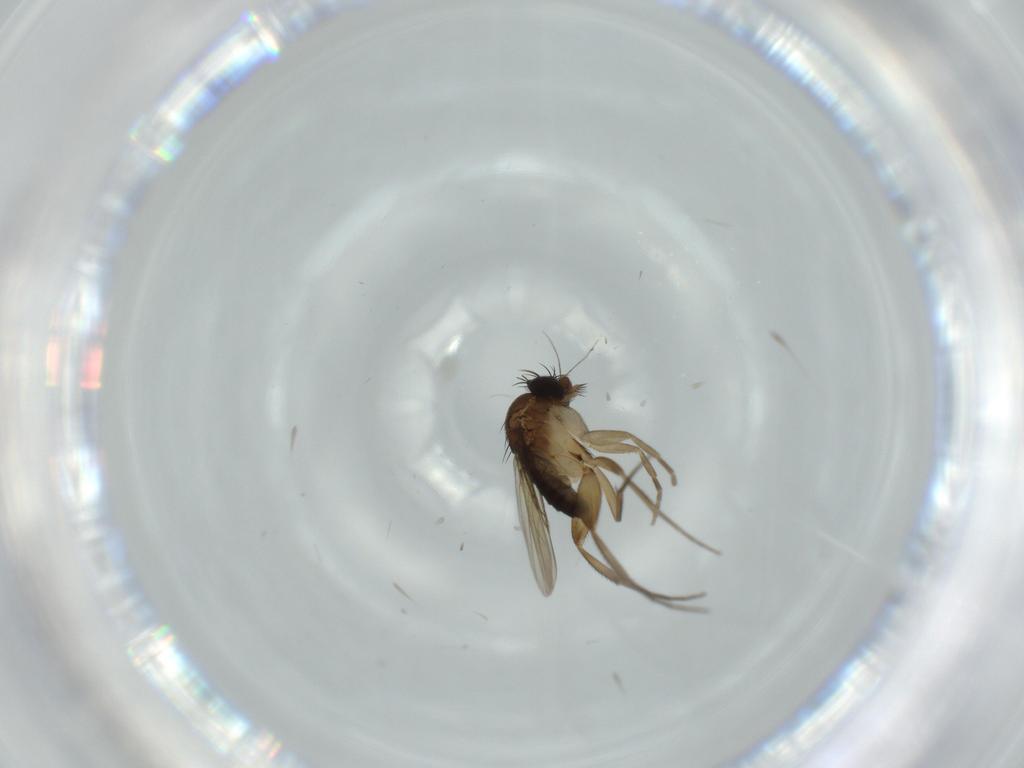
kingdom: Animalia
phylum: Arthropoda
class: Insecta
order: Diptera
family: Phoridae
